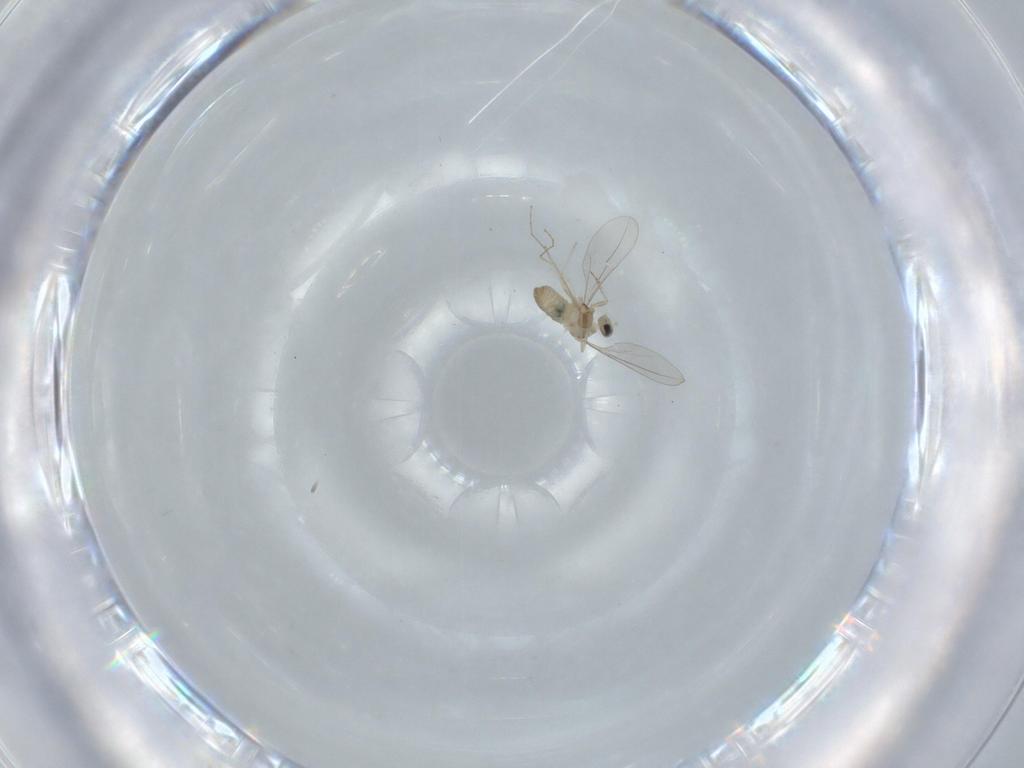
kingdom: Animalia
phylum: Arthropoda
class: Insecta
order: Diptera
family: Cecidomyiidae
